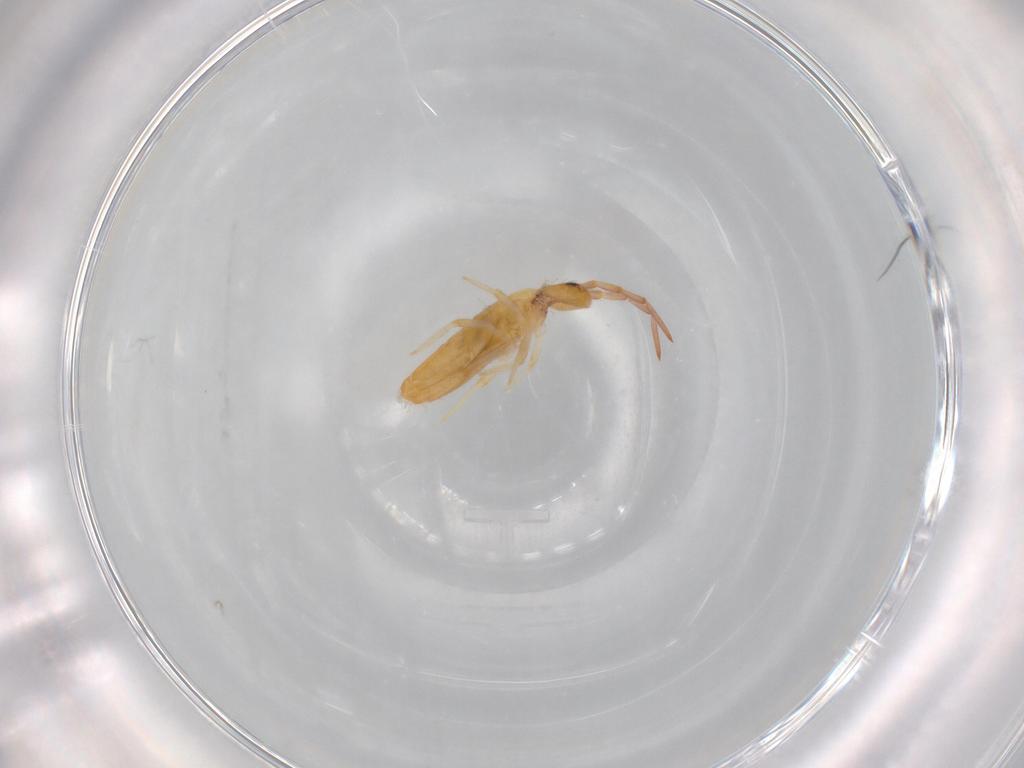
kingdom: Animalia
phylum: Arthropoda
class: Collembola
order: Entomobryomorpha
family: Entomobryidae
